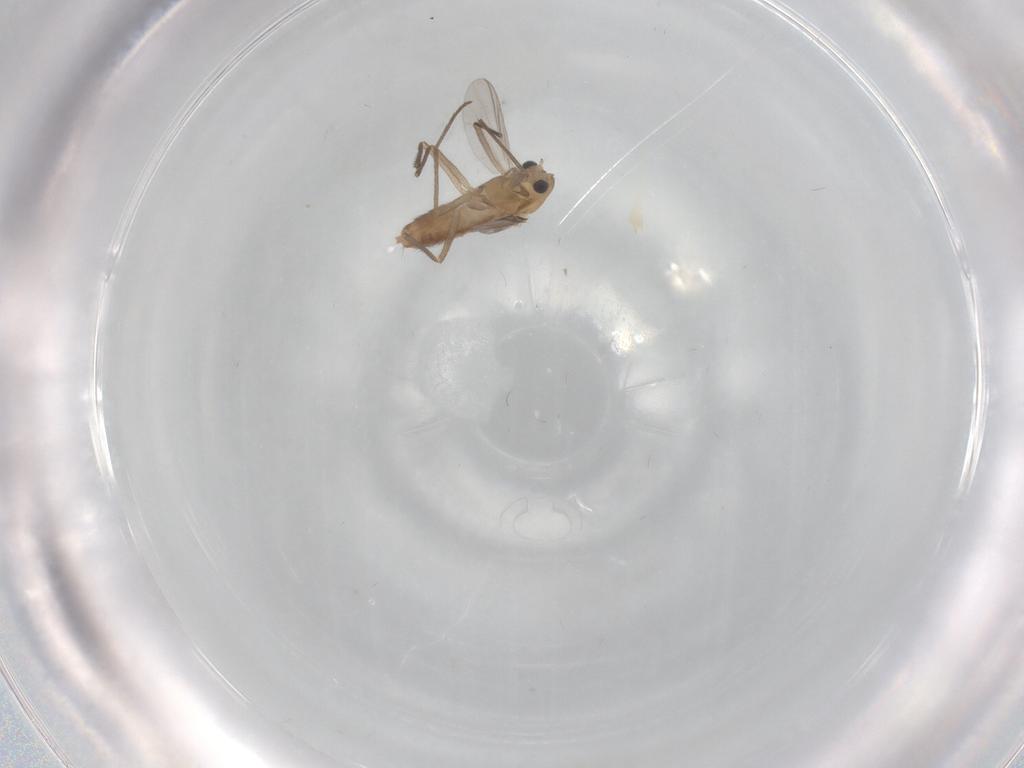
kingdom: Animalia
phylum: Arthropoda
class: Insecta
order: Diptera
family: Chironomidae
